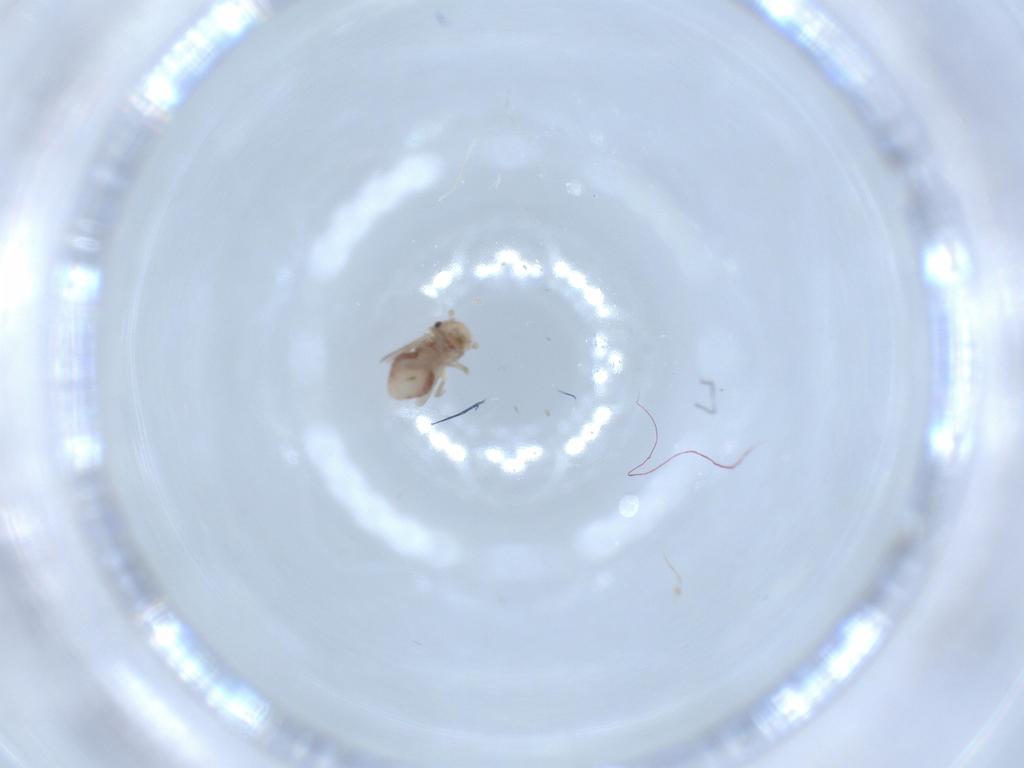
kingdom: Animalia
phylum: Arthropoda
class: Insecta
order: Psocodea
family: Ectopsocidae
